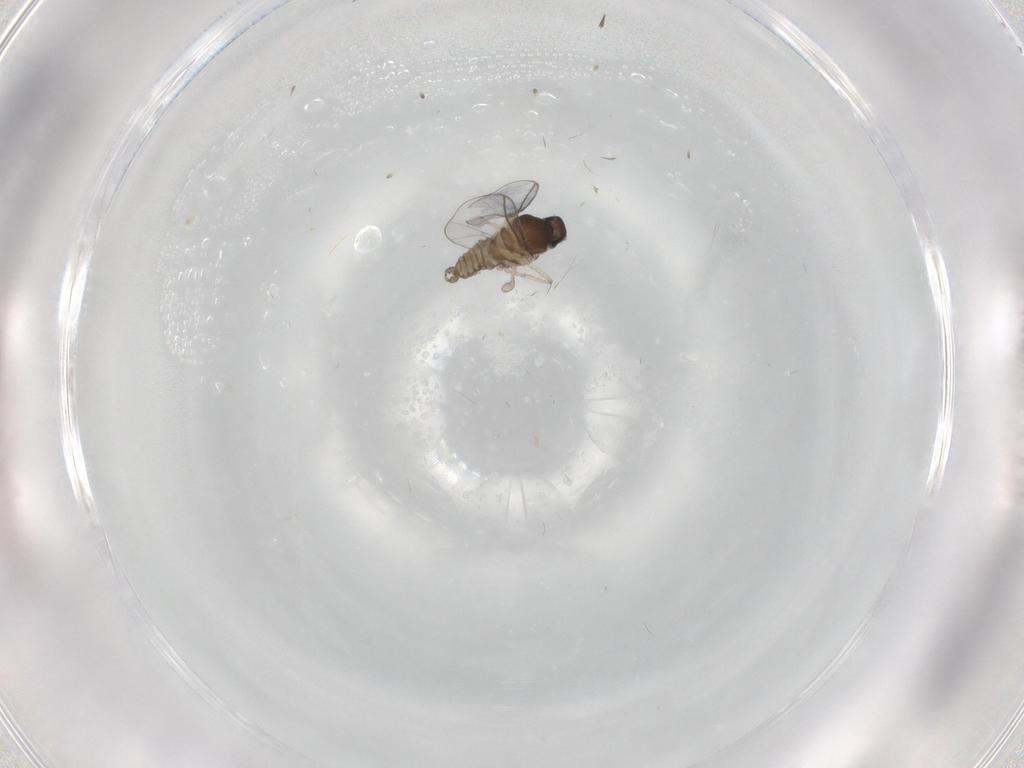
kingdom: Animalia
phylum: Arthropoda
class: Insecta
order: Diptera
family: Cecidomyiidae
